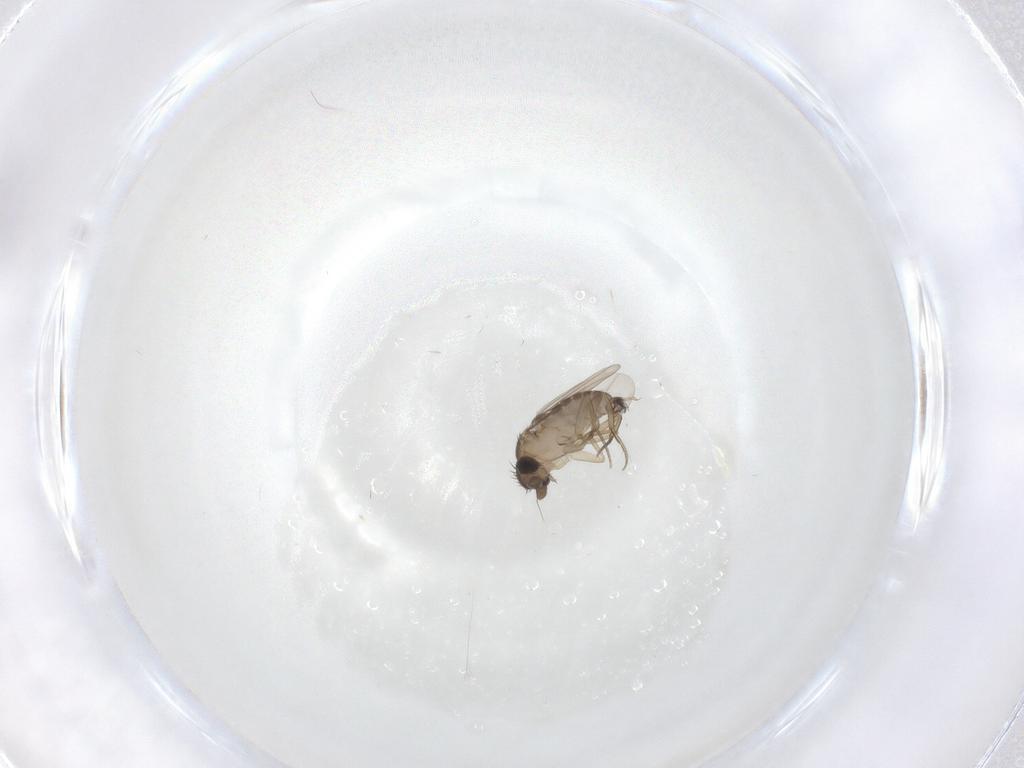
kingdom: Animalia
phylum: Arthropoda
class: Insecta
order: Diptera
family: Phoridae
